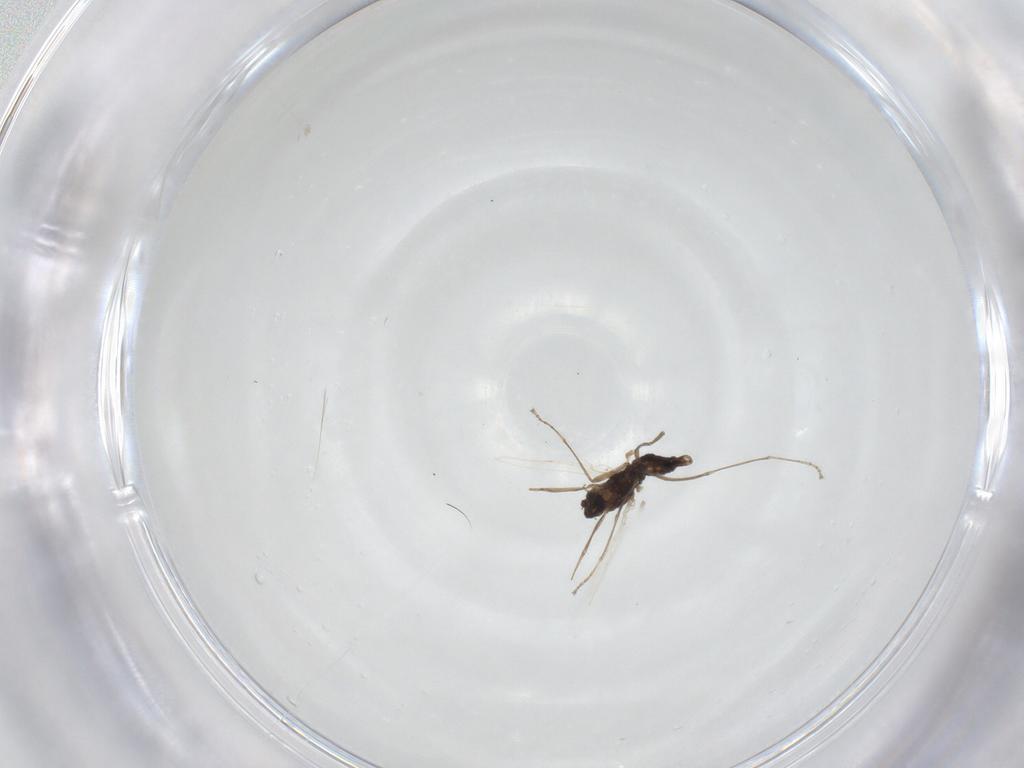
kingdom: Animalia
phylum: Arthropoda
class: Insecta
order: Diptera
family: Cecidomyiidae
